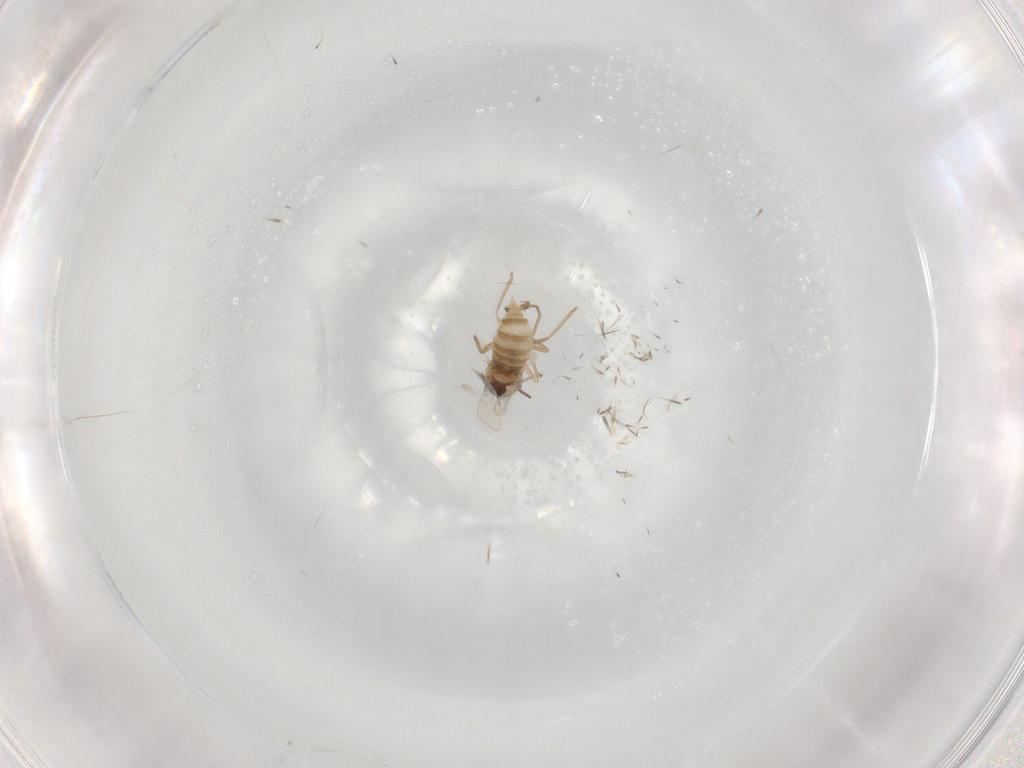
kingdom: Animalia
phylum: Arthropoda
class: Insecta
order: Diptera
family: Cecidomyiidae
